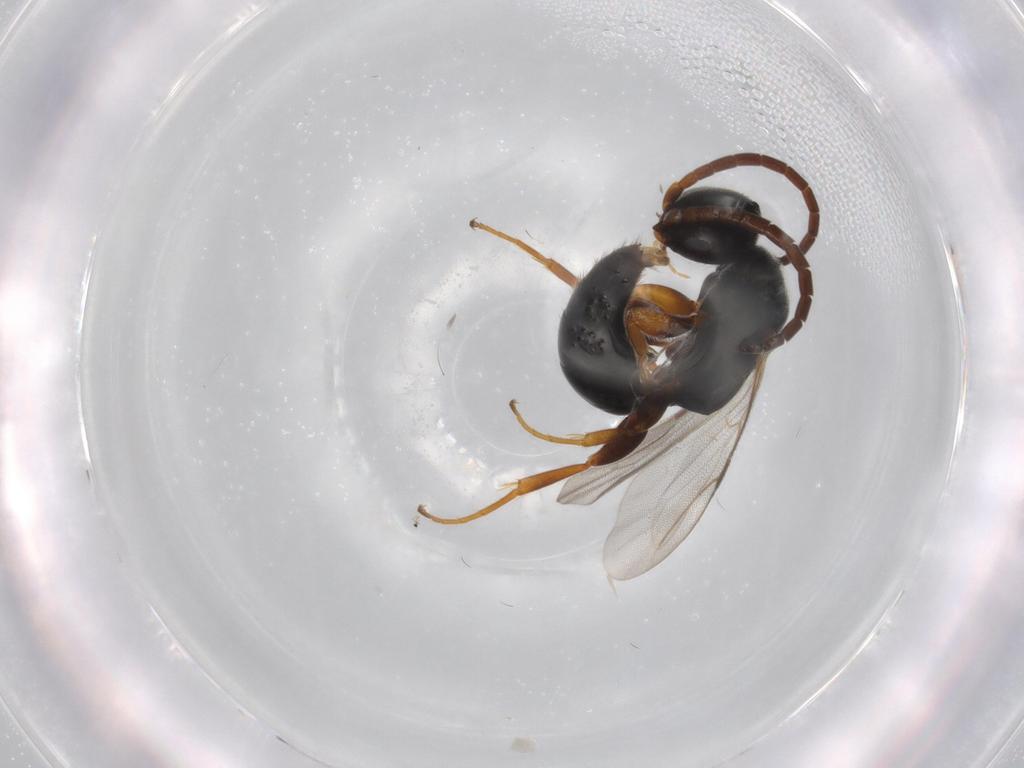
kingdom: Animalia
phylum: Arthropoda
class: Insecta
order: Hymenoptera
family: Bethylidae
